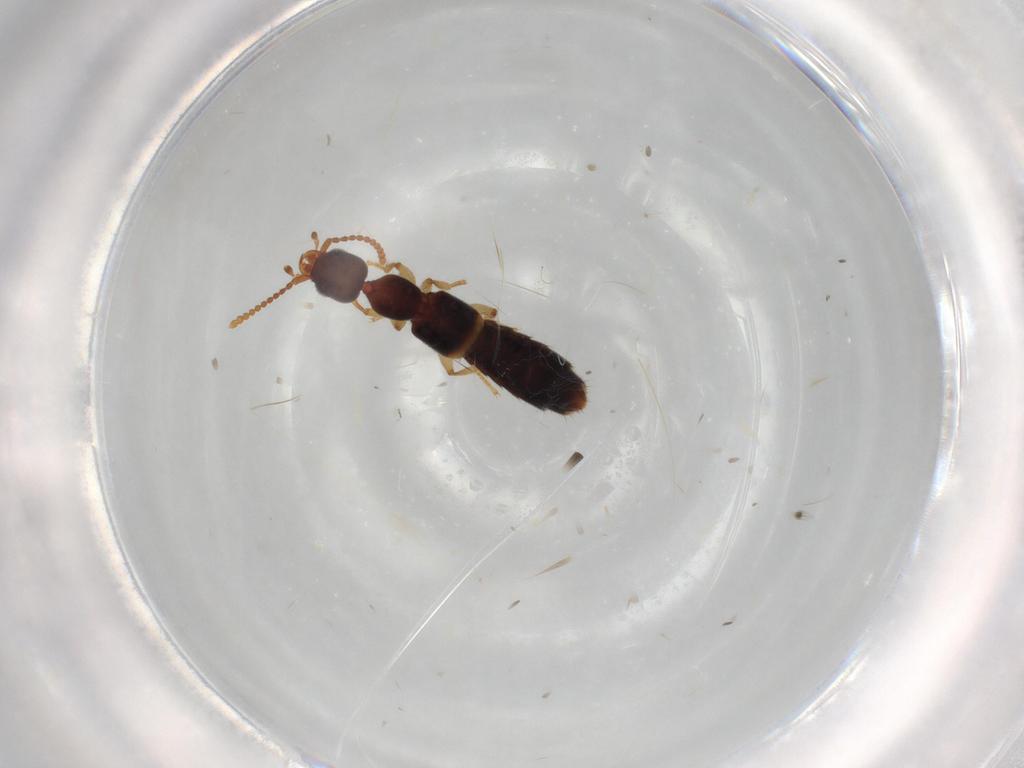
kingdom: Animalia
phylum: Arthropoda
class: Insecta
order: Coleoptera
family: Staphylinidae
